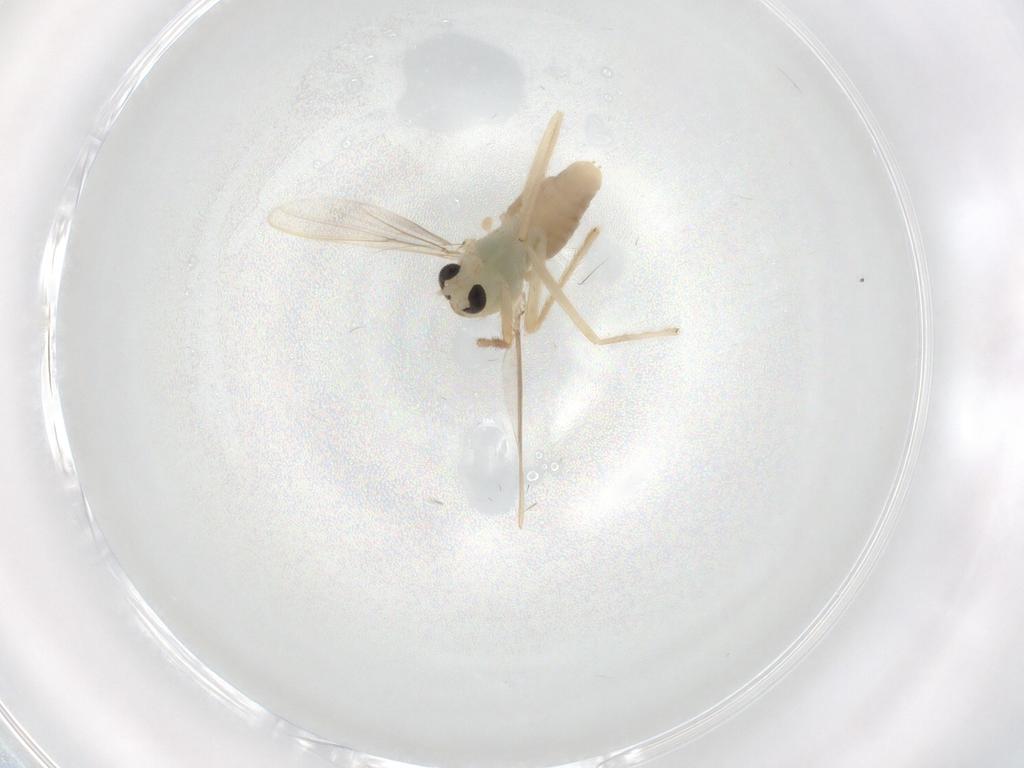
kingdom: Animalia
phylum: Arthropoda
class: Insecta
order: Diptera
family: Chironomidae
